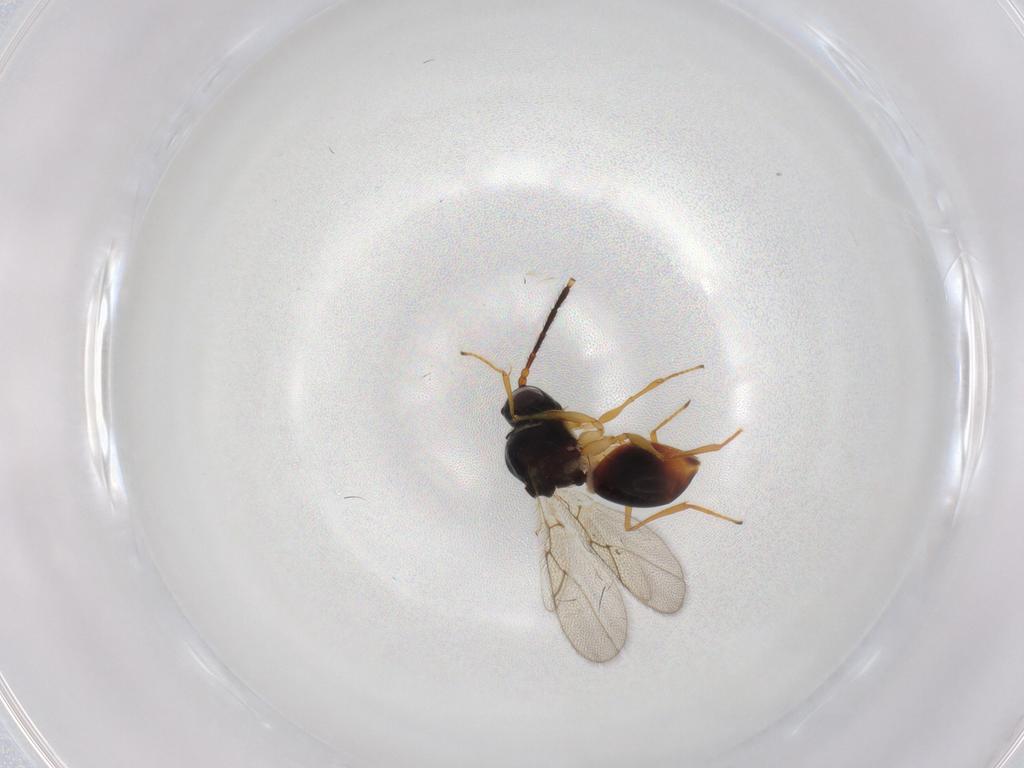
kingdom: Animalia
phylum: Arthropoda
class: Insecta
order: Hymenoptera
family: Figitidae
